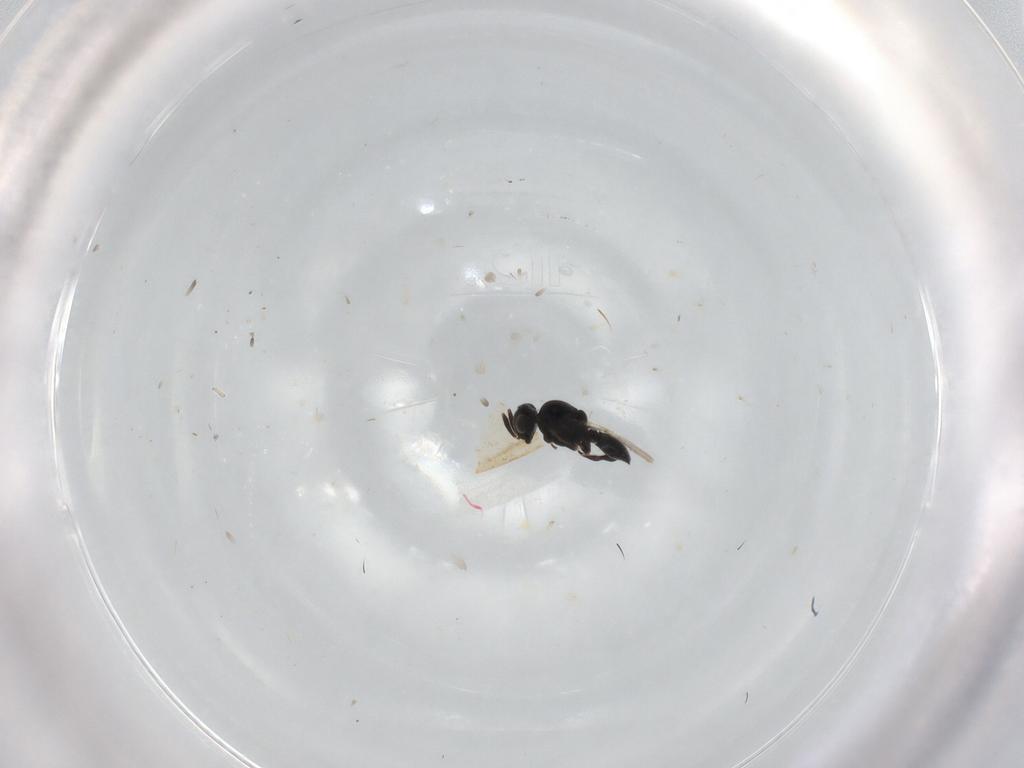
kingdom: Animalia
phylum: Arthropoda
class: Insecta
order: Hymenoptera
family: Platygastridae
